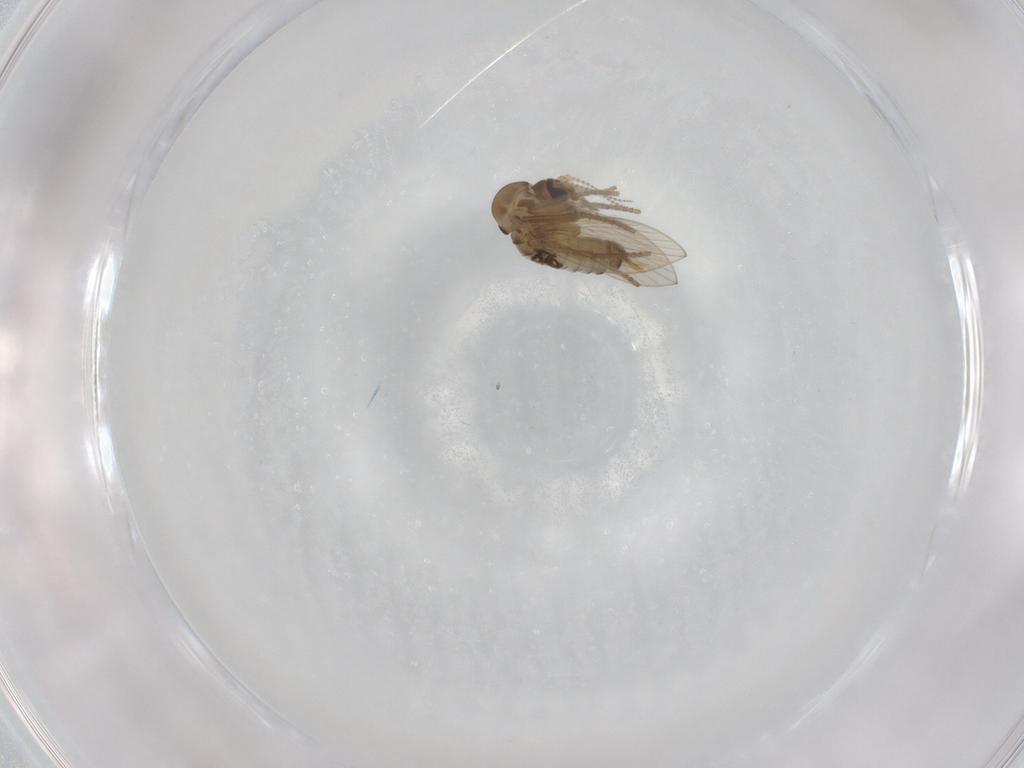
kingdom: Animalia
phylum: Arthropoda
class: Insecta
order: Diptera
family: Psychodidae
